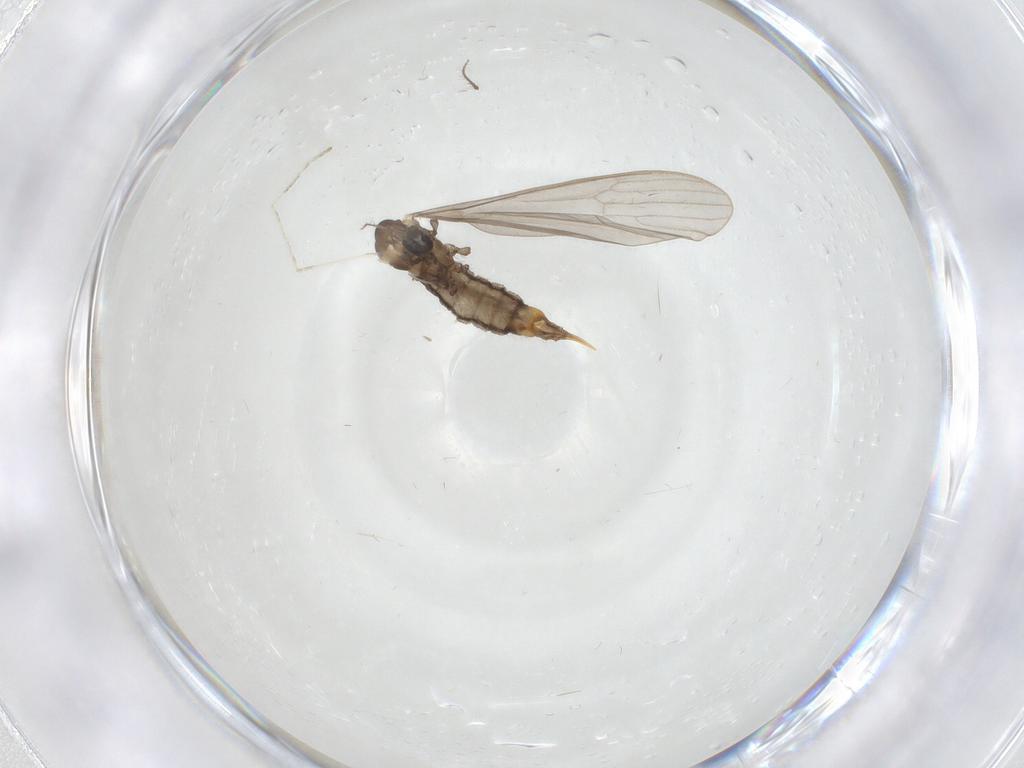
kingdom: Animalia
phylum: Arthropoda
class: Insecta
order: Diptera
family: Limoniidae
